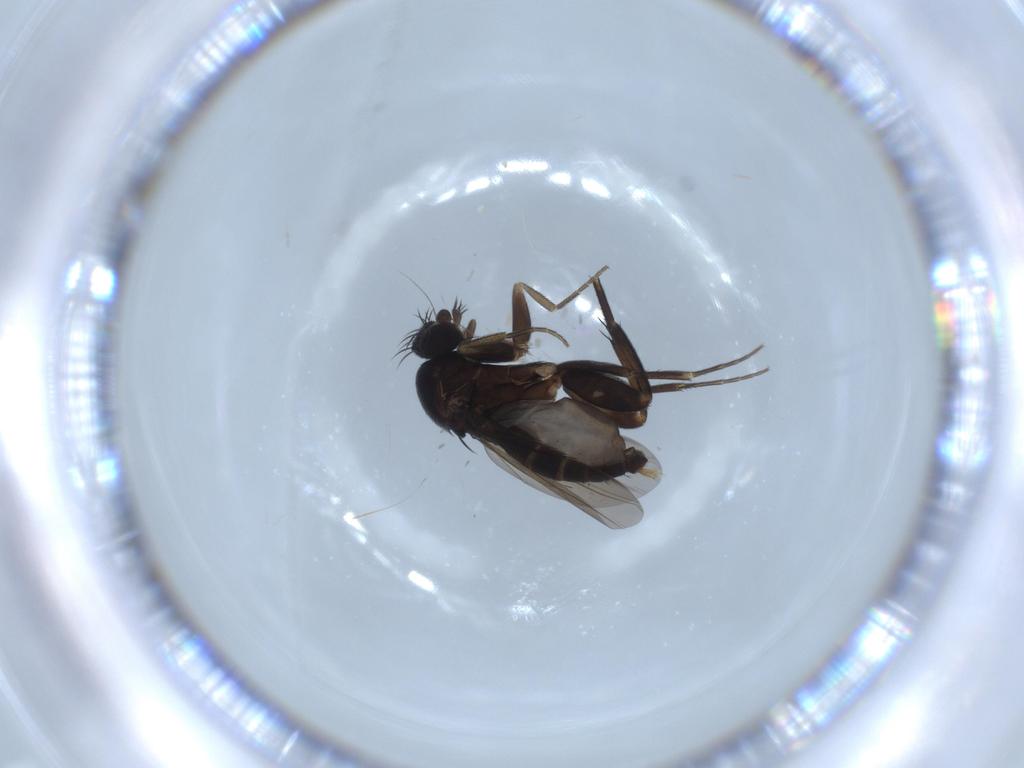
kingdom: Animalia
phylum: Arthropoda
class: Insecta
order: Diptera
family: Phoridae
